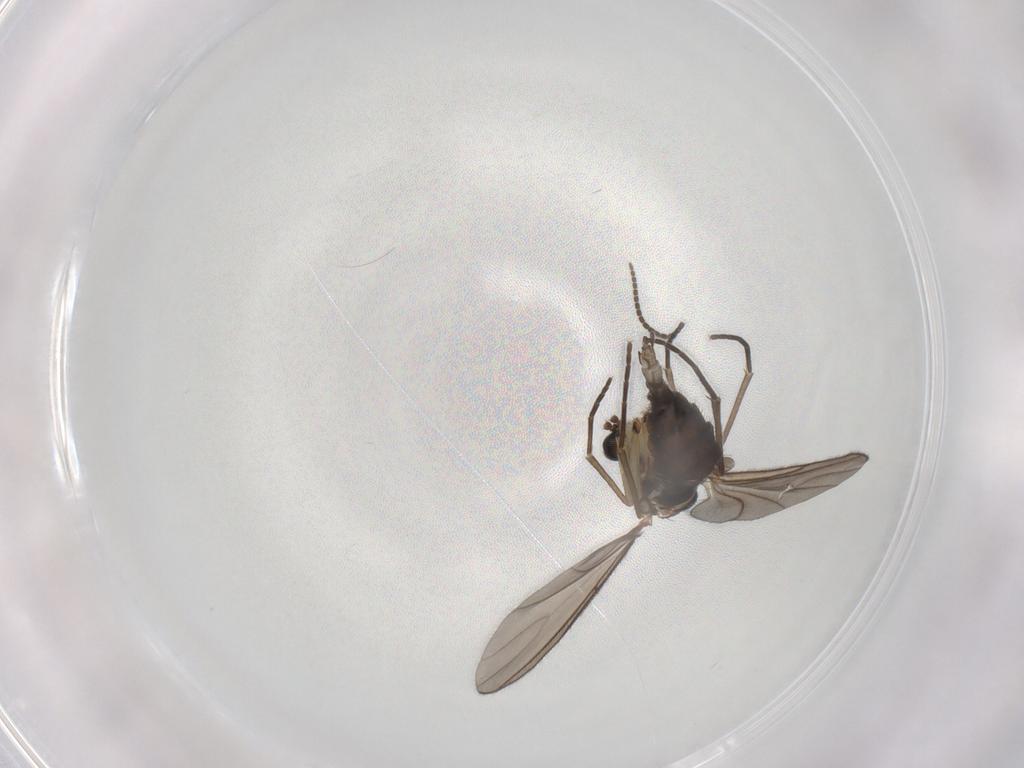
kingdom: Animalia
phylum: Arthropoda
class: Insecta
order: Diptera
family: Sciaridae
